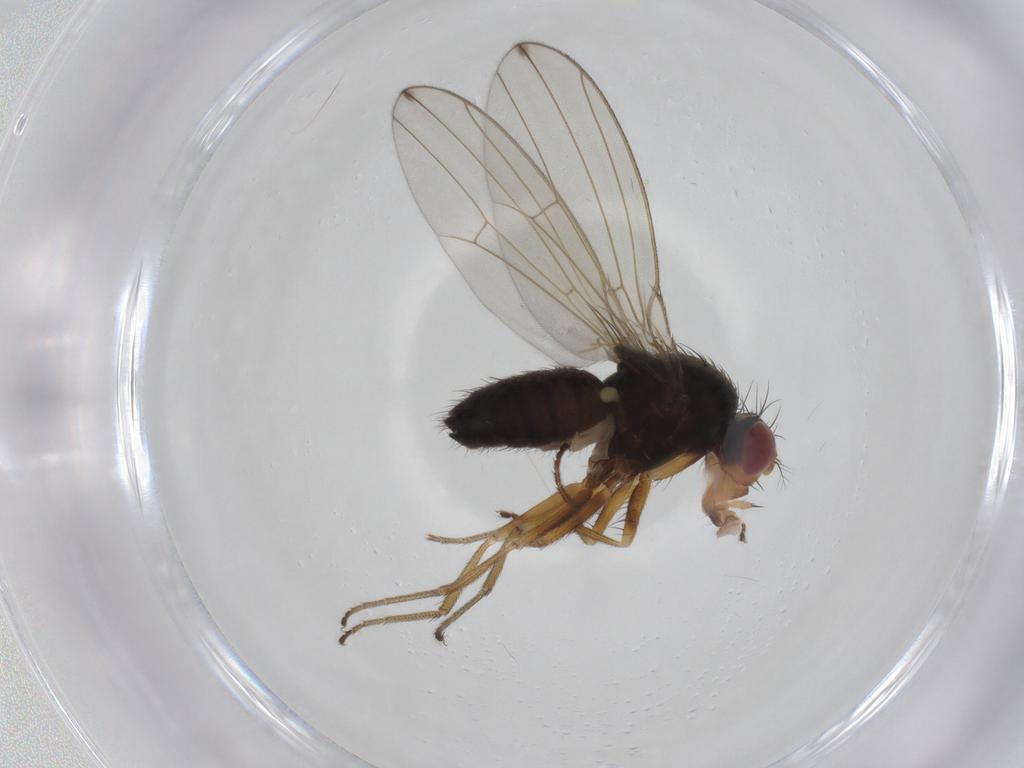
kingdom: Animalia
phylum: Arthropoda
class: Insecta
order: Diptera
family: Drosophilidae
